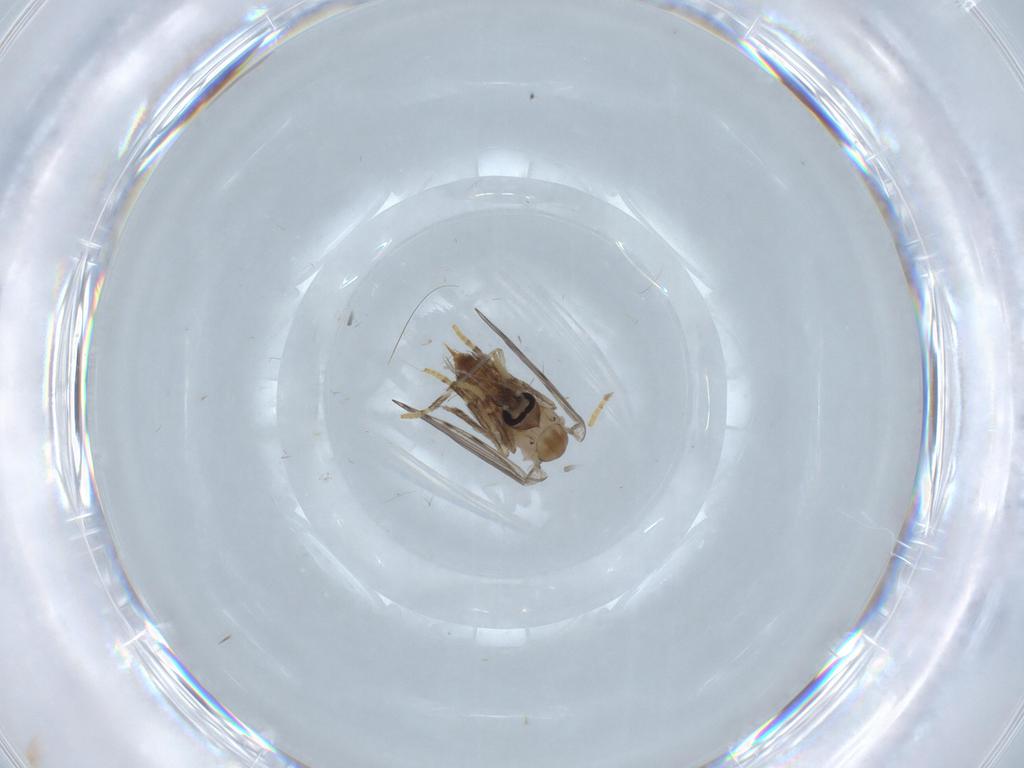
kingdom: Animalia
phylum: Arthropoda
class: Insecta
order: Diptera
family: Psychodidae
